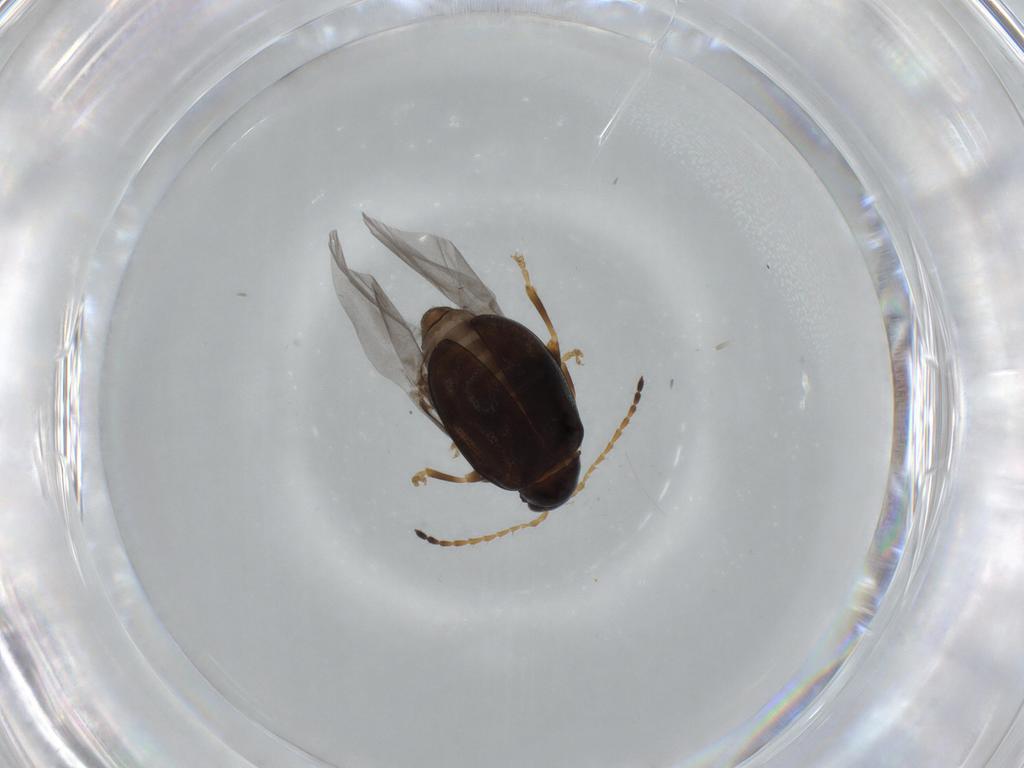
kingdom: Animalia
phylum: Arthropoda
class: Insecta
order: Coleoptera
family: Chrysomelidae
